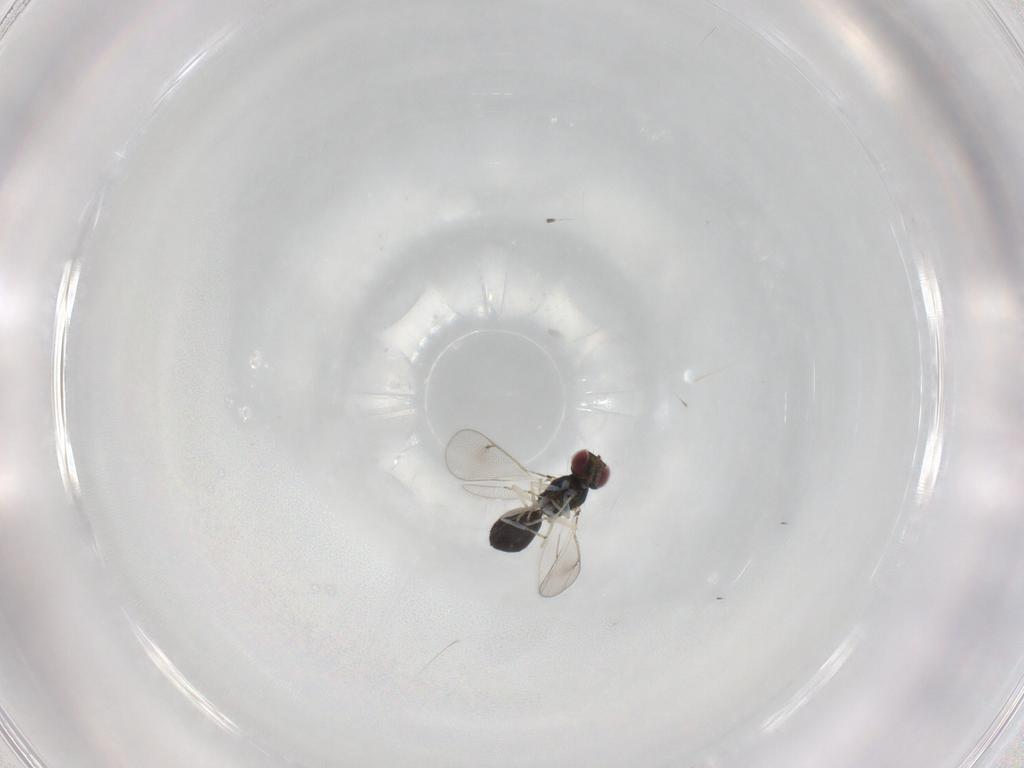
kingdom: Animalia
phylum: Arthropoda
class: Insecta
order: Hymenoptera
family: Eulophidae
